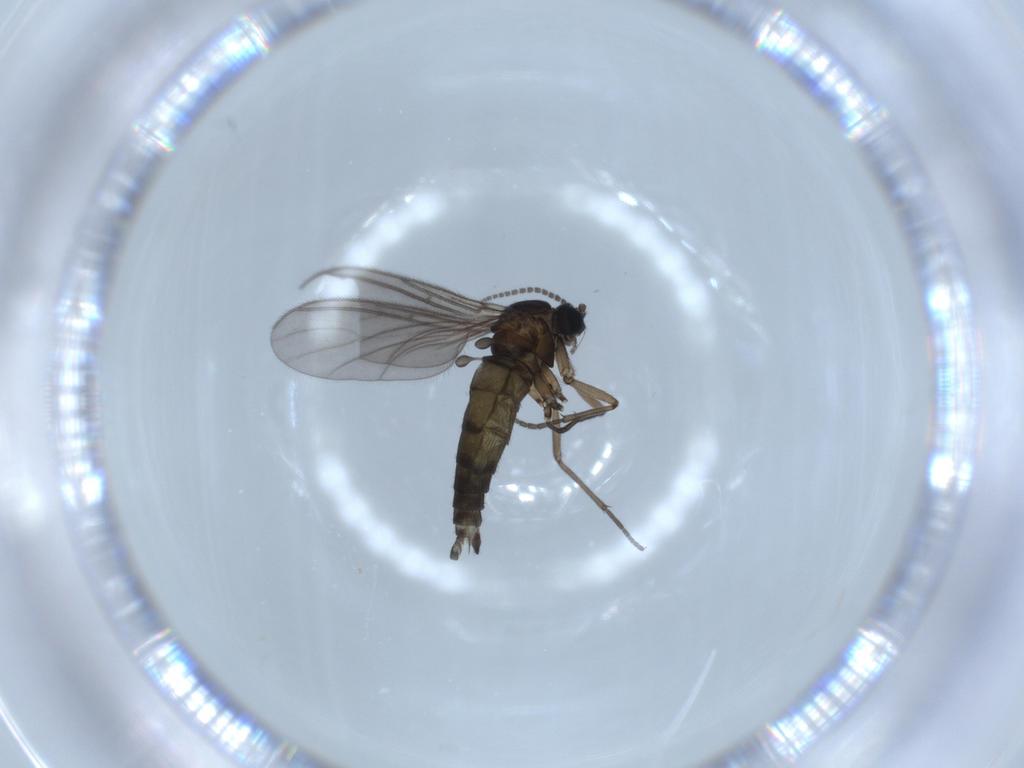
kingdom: Animalia
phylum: Arthropoda
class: Insecta
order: Diptera
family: Sciaridae
